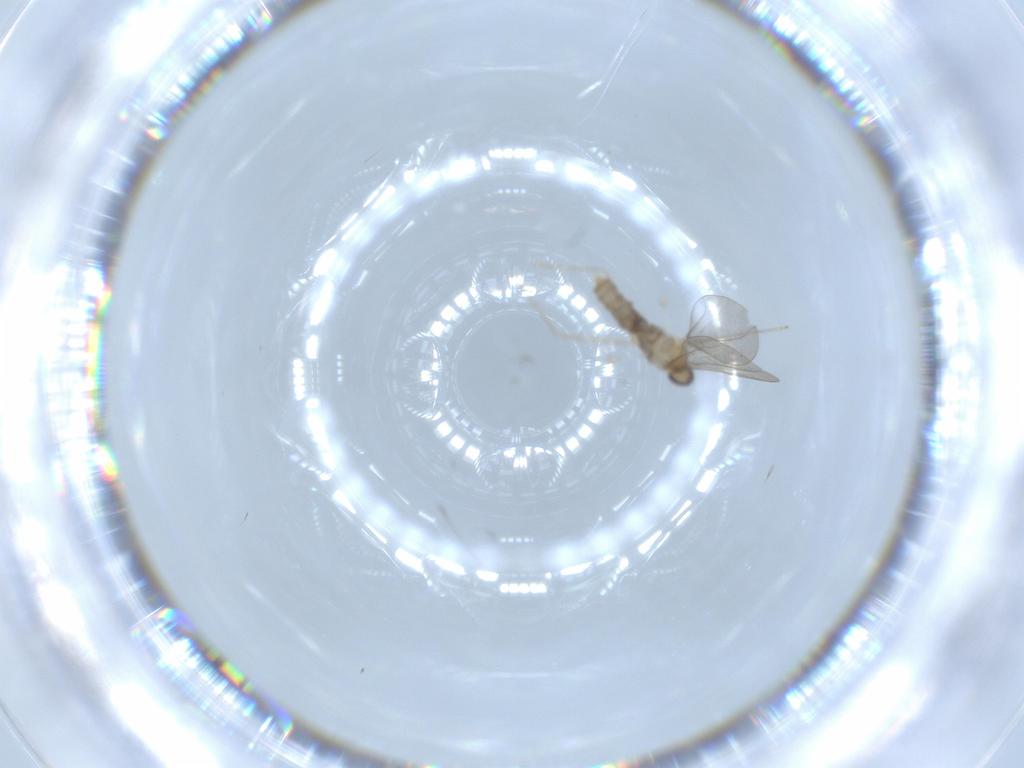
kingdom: Animalia
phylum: Arthropoda
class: Insecta
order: Diptera
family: Cecidomyiidae
